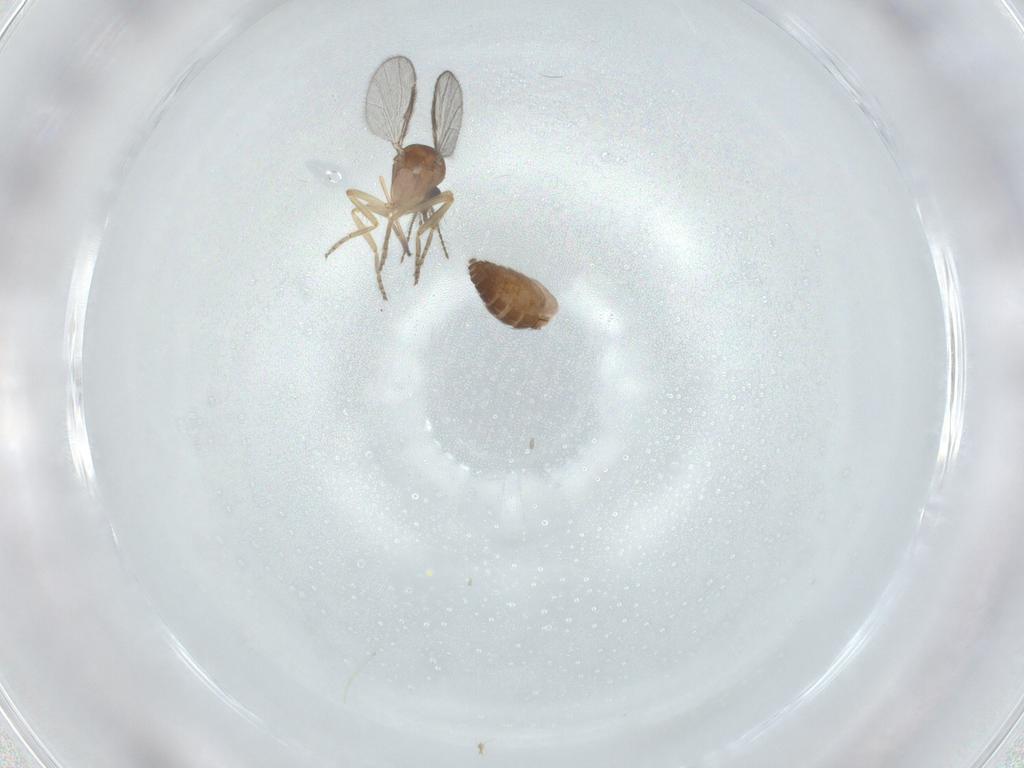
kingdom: Animalia
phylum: Arthropoda
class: Insecta
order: Diptera
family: Ceratopogonidae
